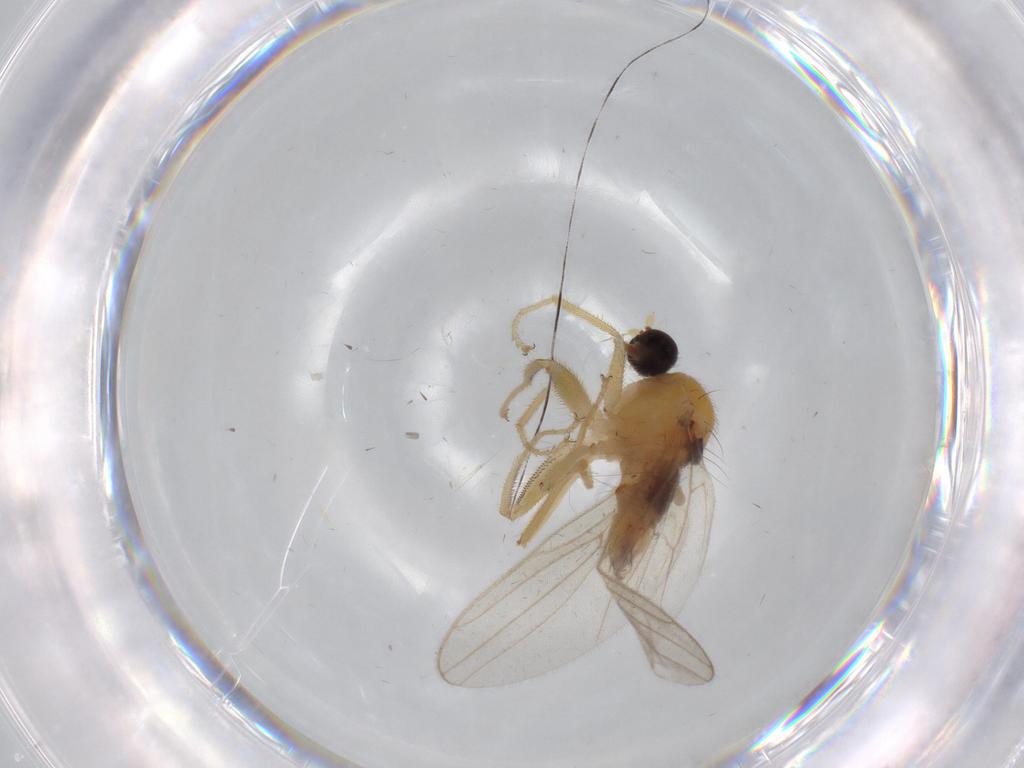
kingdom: Animalia
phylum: Arthropoda
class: Insecta
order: Diptera
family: Hybotidae
